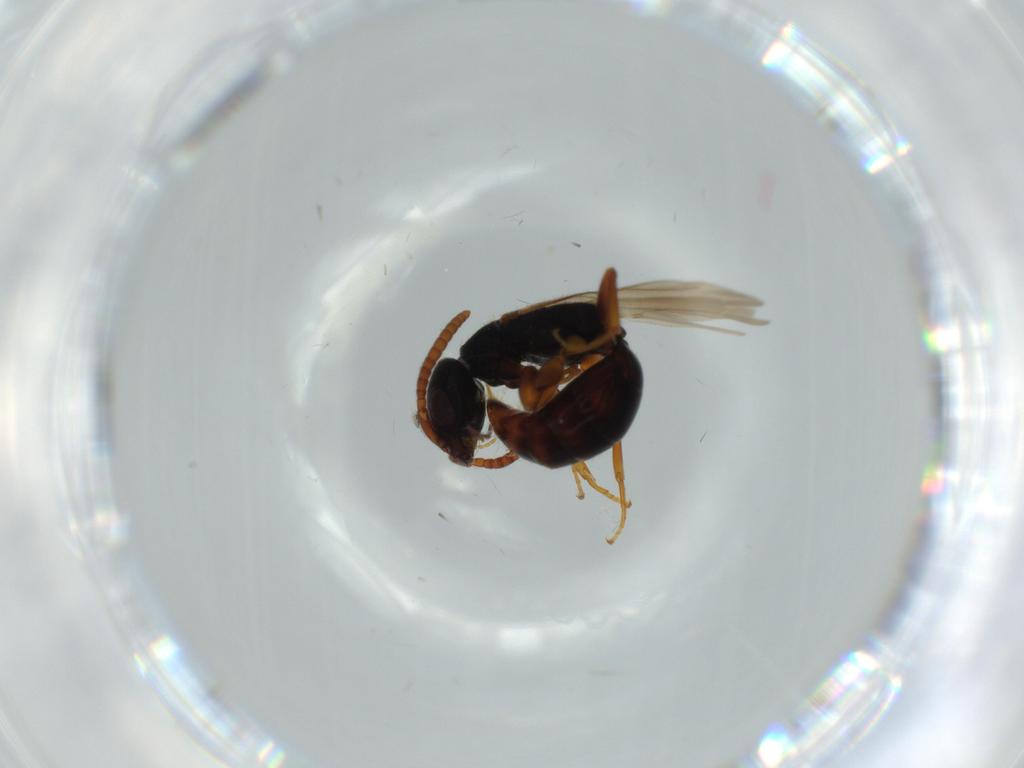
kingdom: Animalia
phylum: Arthropoda
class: Insecta
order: Hymenoptera
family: Bethylidae
